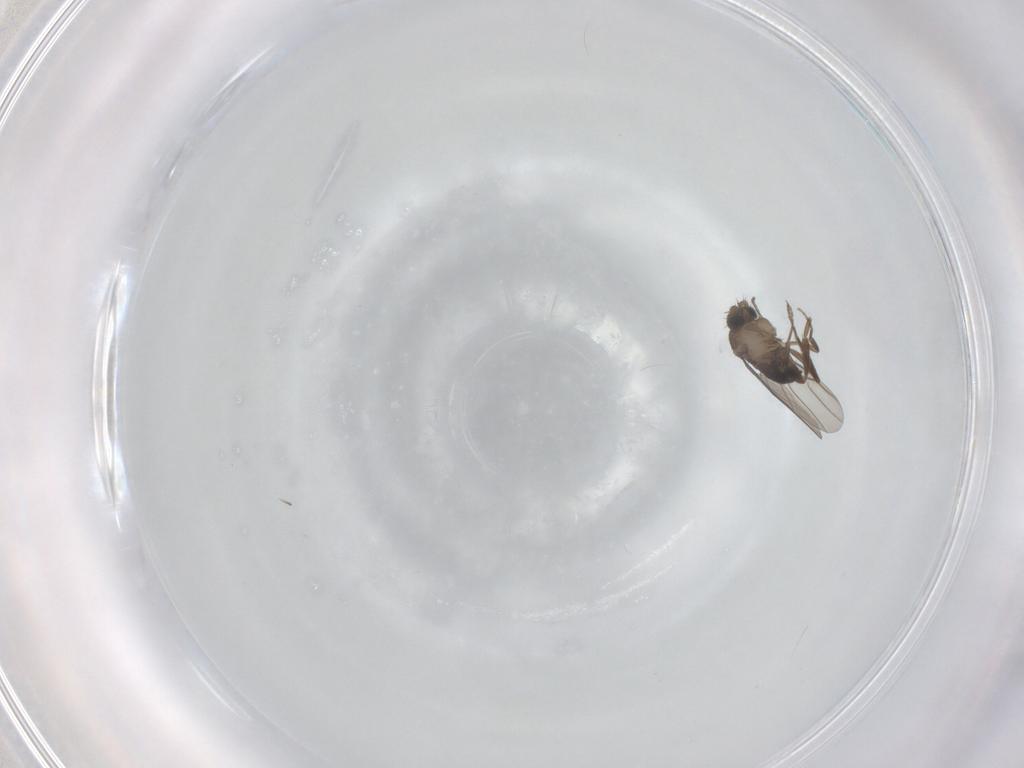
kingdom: Animalia
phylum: Arthropoda
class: Insecta
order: Diptera
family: Phoridae
